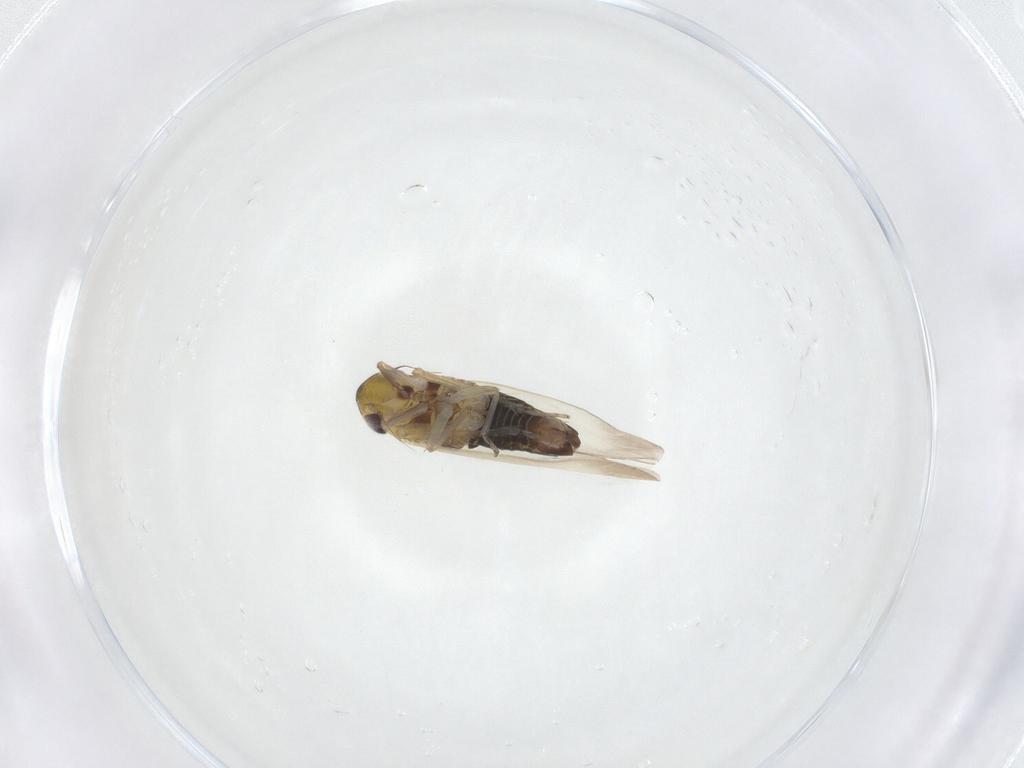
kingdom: Animalia
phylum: Arthropoda
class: Insecta
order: Hemiptera
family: Cicadellidae
